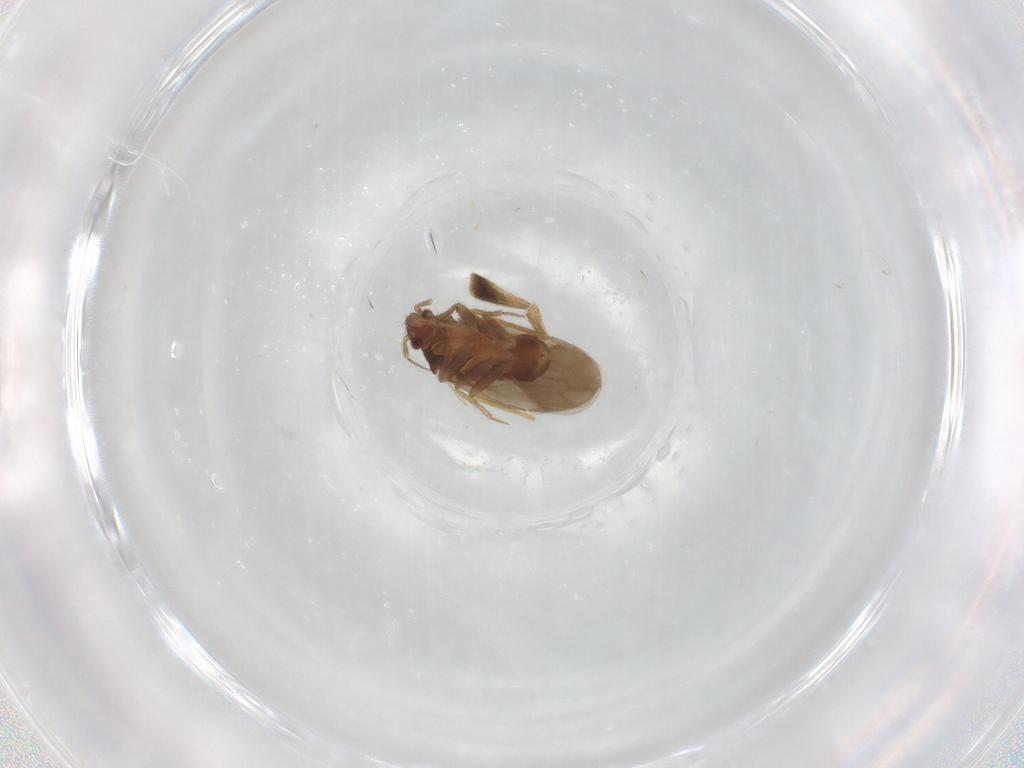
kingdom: Animalia
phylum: Arthropoda
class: Insecta
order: Hemiptera
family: Ceratocombidae
